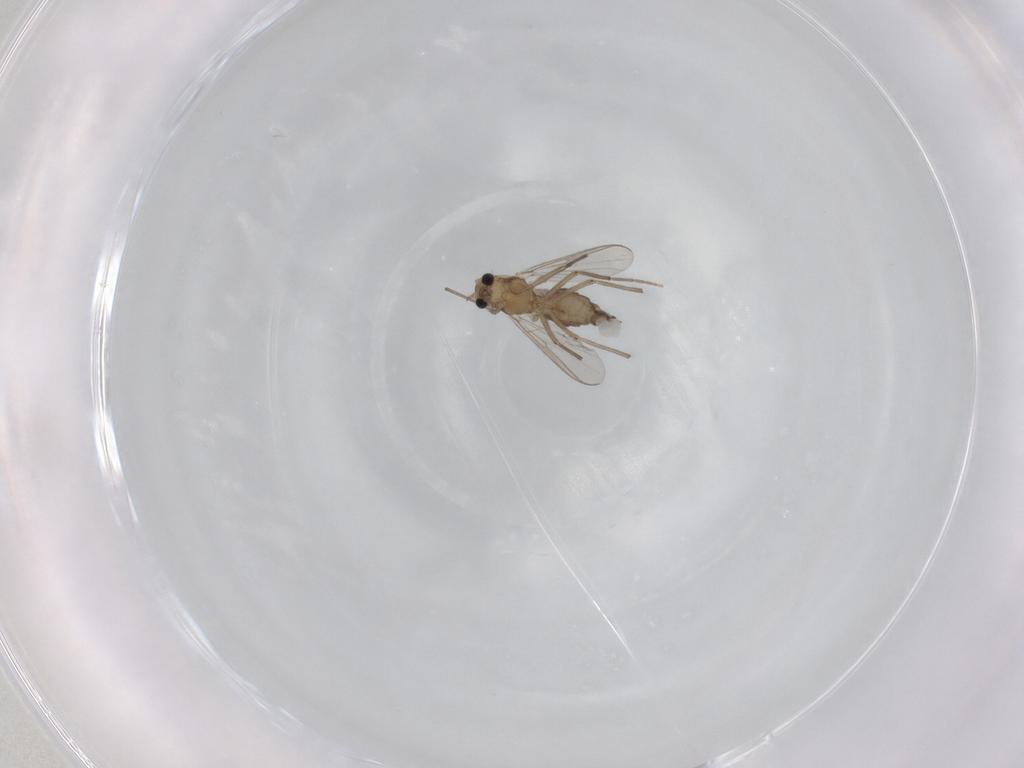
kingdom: Animalia
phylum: Arthropoda
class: Insecta
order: Diptera
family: Chironomidae
